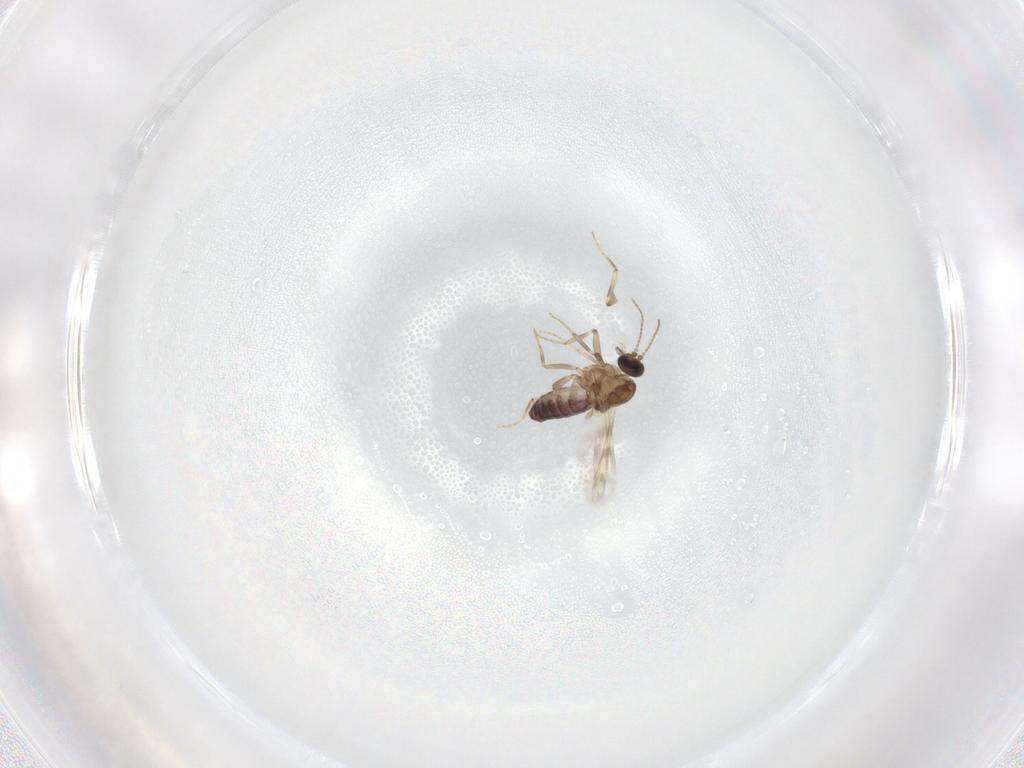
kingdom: Animalia
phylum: Arthropoda
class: Insecta
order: Diptera
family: Ceratopogonidae
